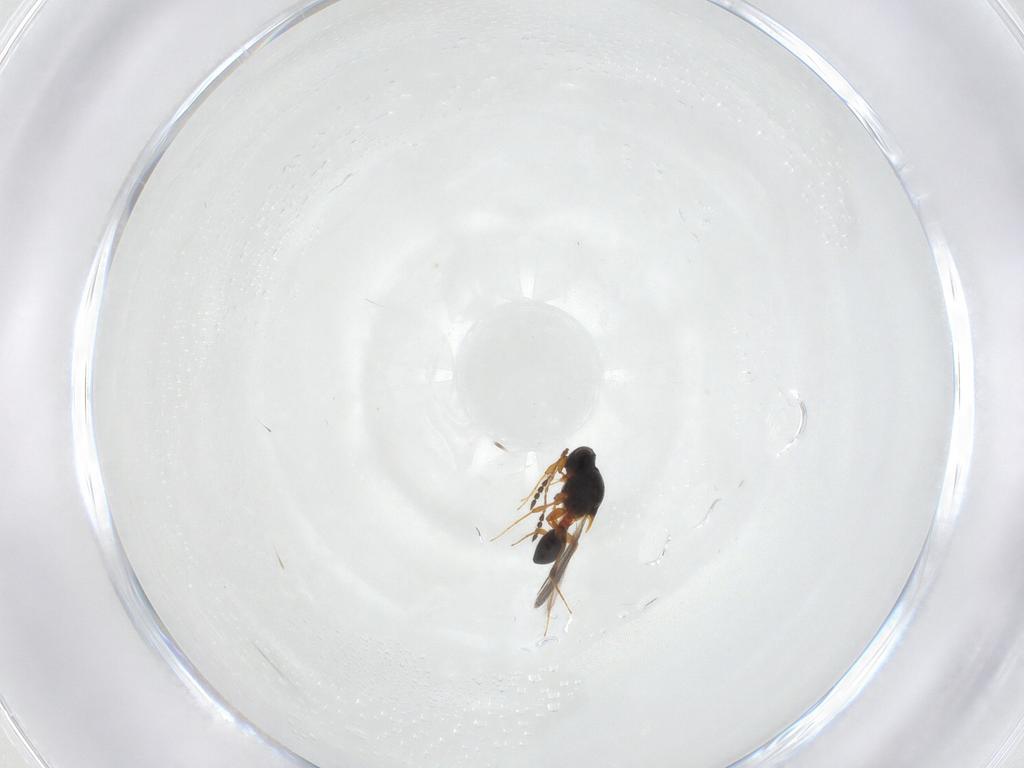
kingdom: Animalia
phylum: Arthropoda
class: Insecta
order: Hymenoptera
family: Platygastridae
